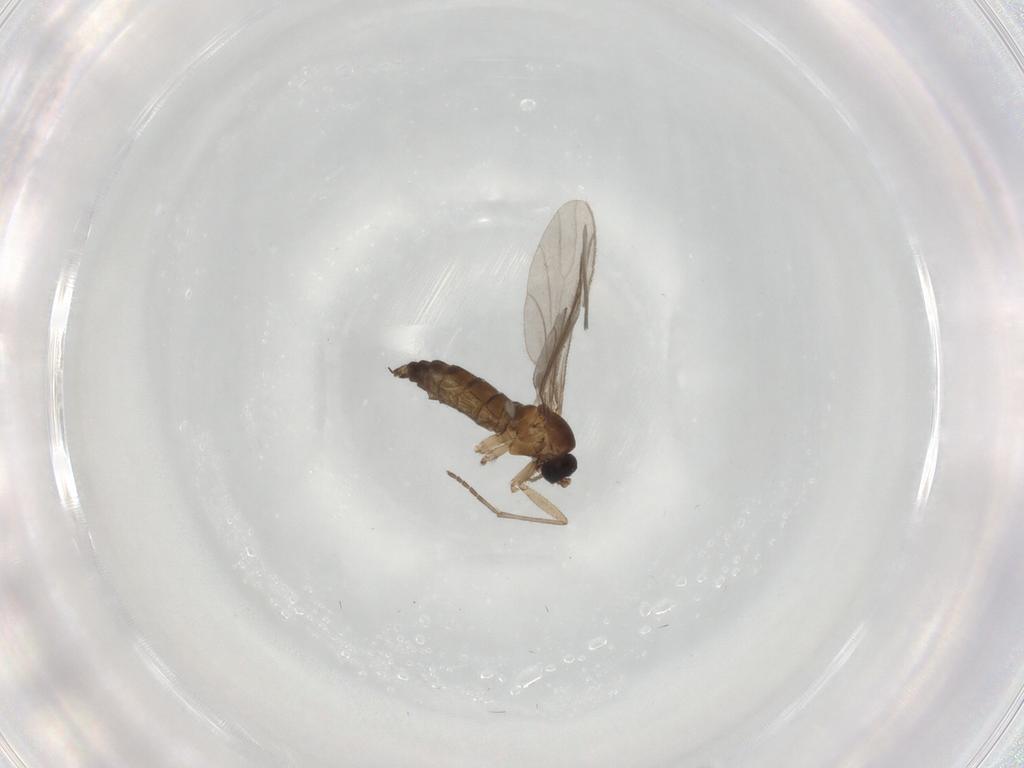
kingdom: Animalia
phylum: Arthropoda
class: Insecta
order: Diptera
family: Sciaridae
